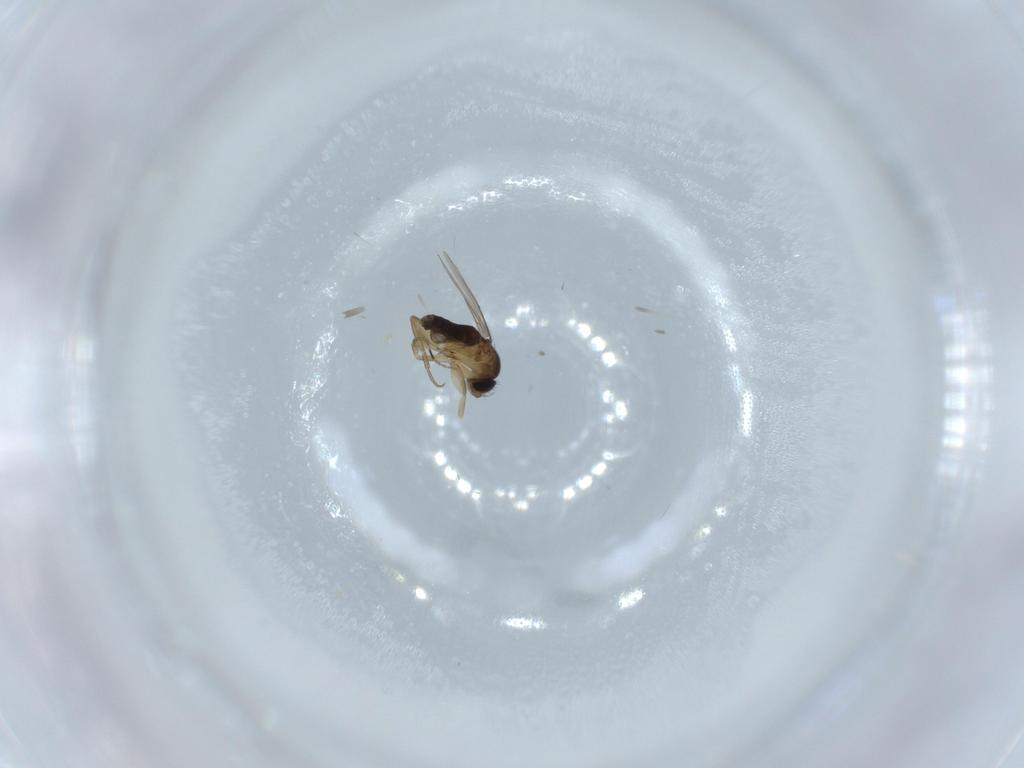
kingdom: Animalia
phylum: Arthropoda
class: Insecta
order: Diptera
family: Phoridae
